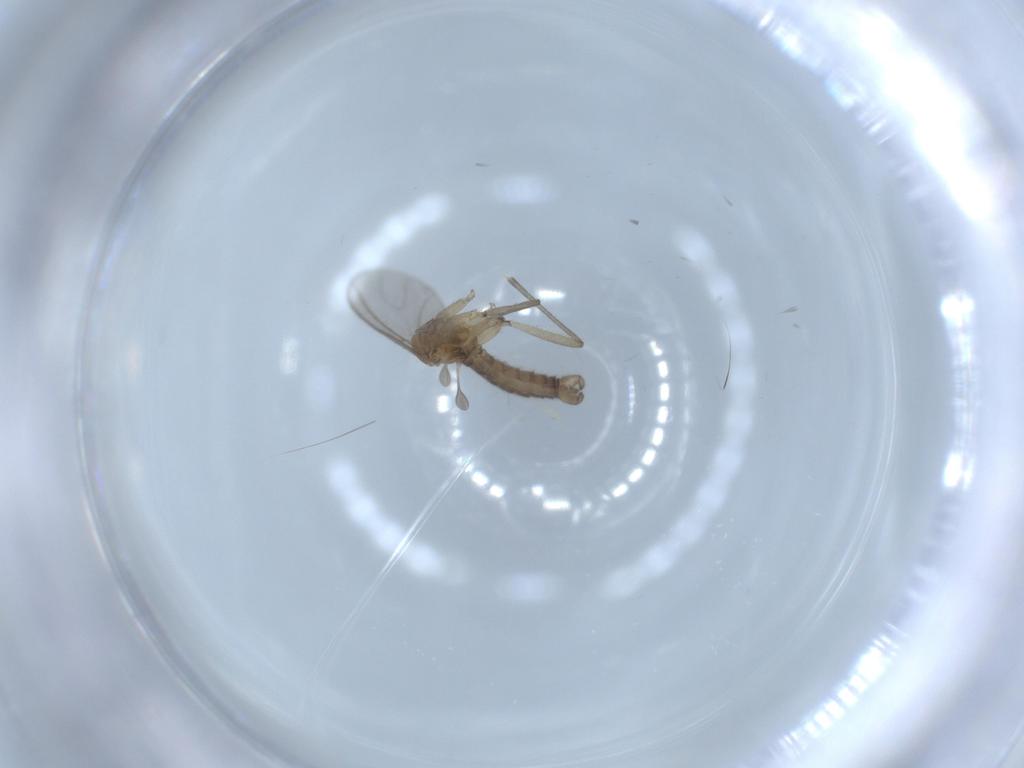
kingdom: Animalia
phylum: Arthropoda
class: Insecta
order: Diptera
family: Sciaridae
